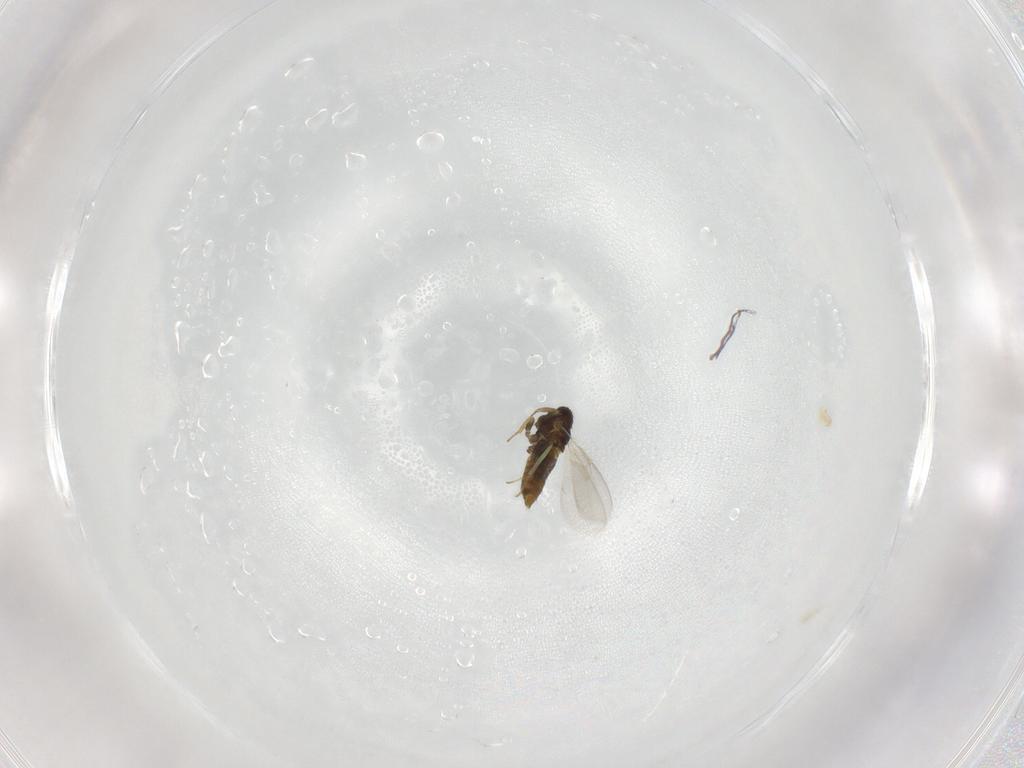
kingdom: Animalia
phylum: Arthropoda
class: Insecta
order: Hymenoptera
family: Aphelinidae
